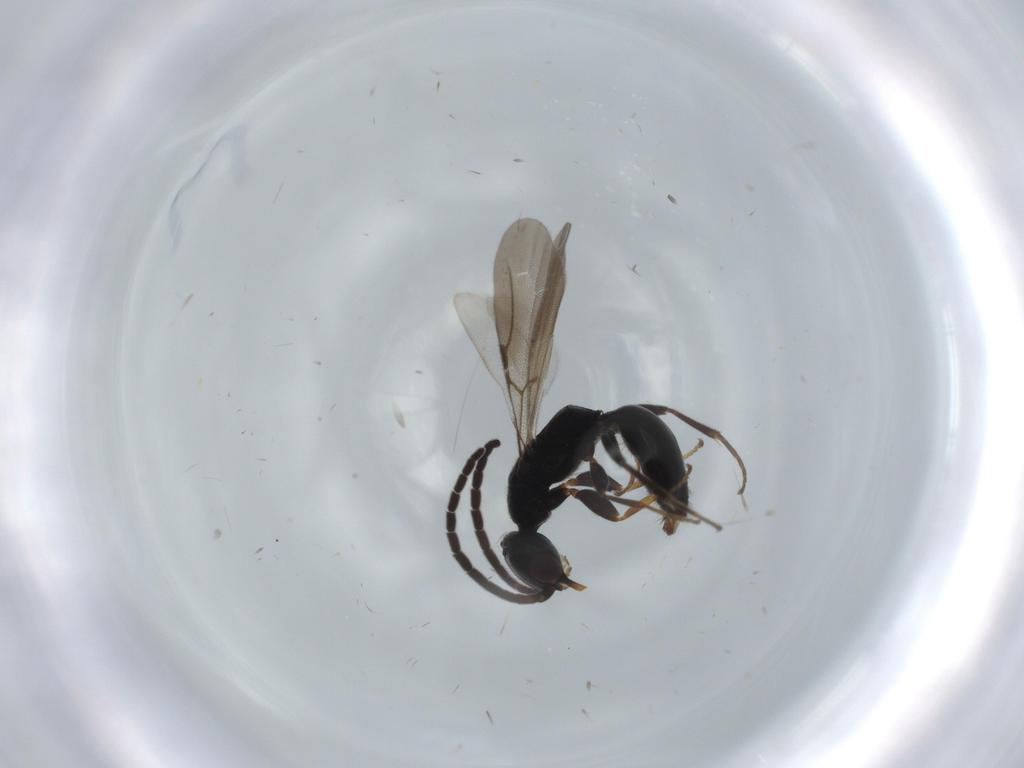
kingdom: Animalia
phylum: Arthropoda
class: Insecta
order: Hymenoptera
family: Bethylidae
